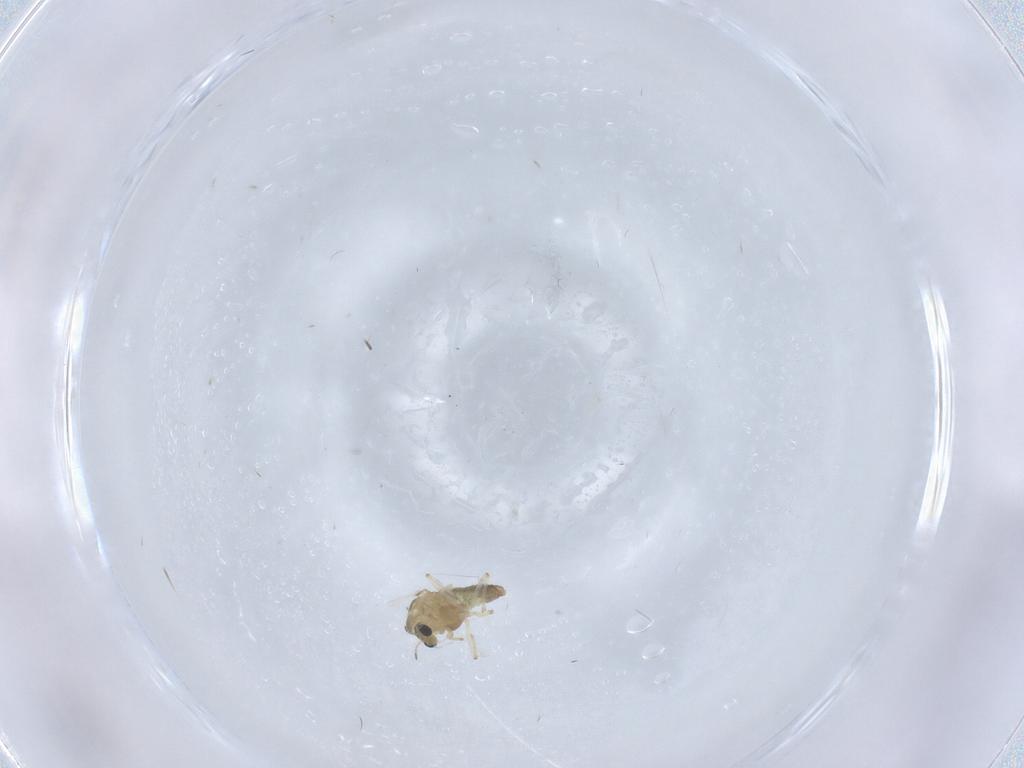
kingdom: Animalia
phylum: Arthropoda
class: Insecta
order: Diptera
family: Chironomidae
